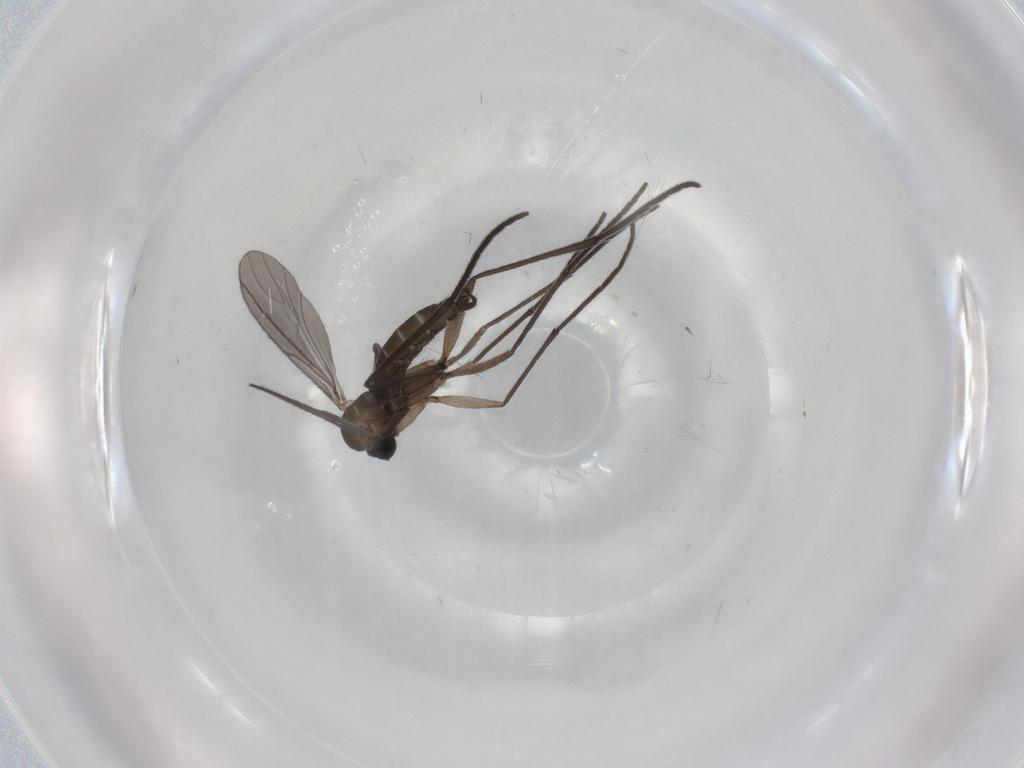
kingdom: Animalia
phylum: Arthropoda
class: Insecta
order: Diptera
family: Sciaridae
